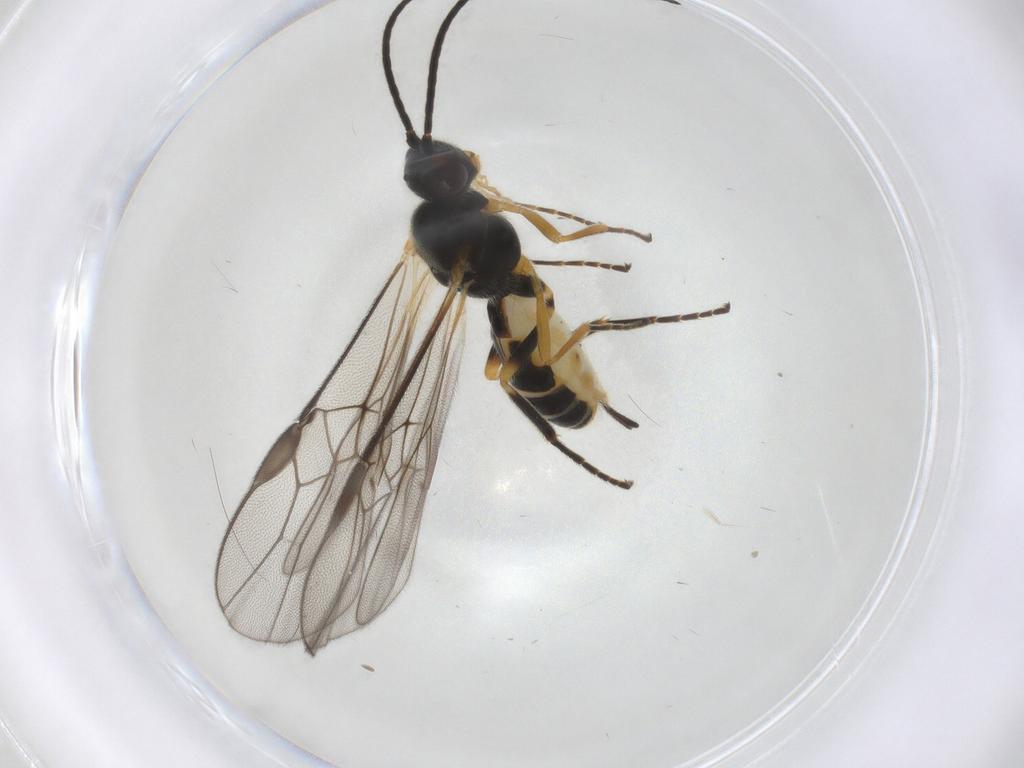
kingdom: Animalia
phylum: Arthropoda
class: Insecta
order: Hymenoptera
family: Braconidae
